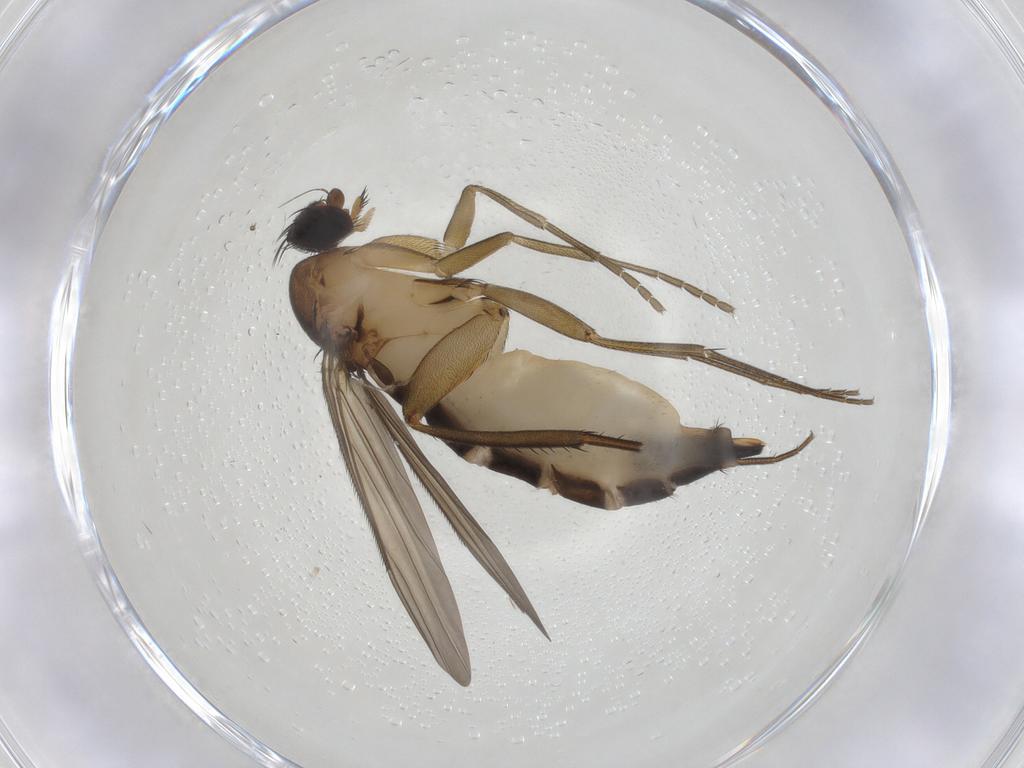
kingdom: Animalia
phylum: Arthropoda
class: Insecta
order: Diptera
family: Phoridae
